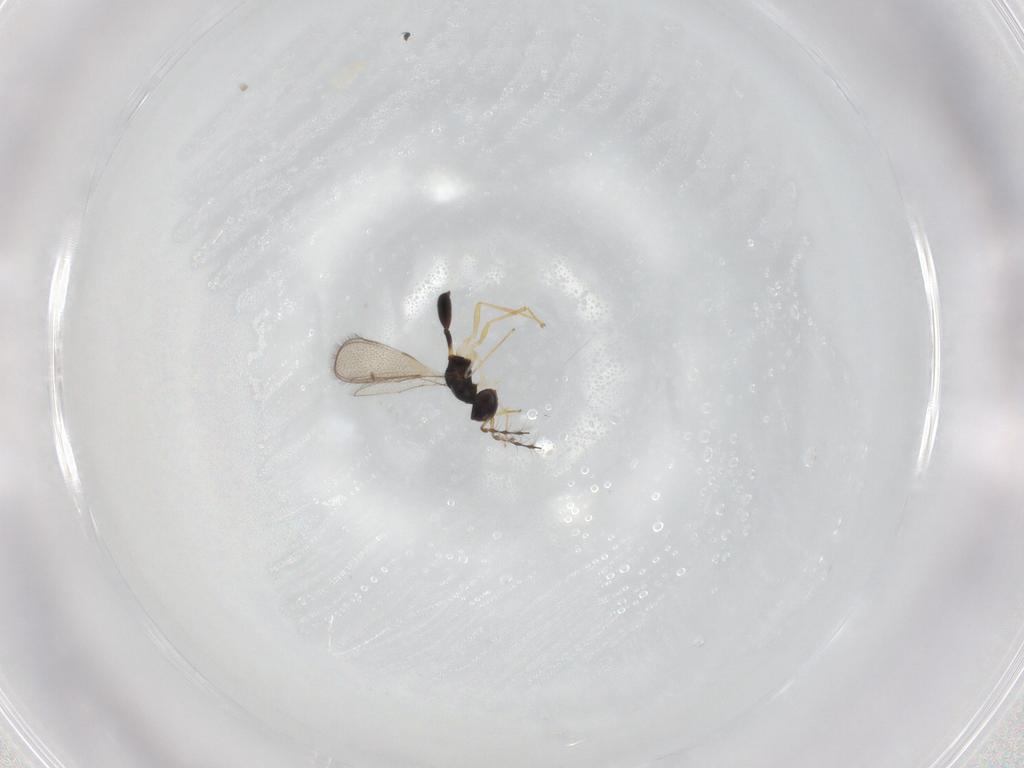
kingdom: Animalia
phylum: Arthropoda
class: Insecta
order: Hymenoptera
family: Diparidae
